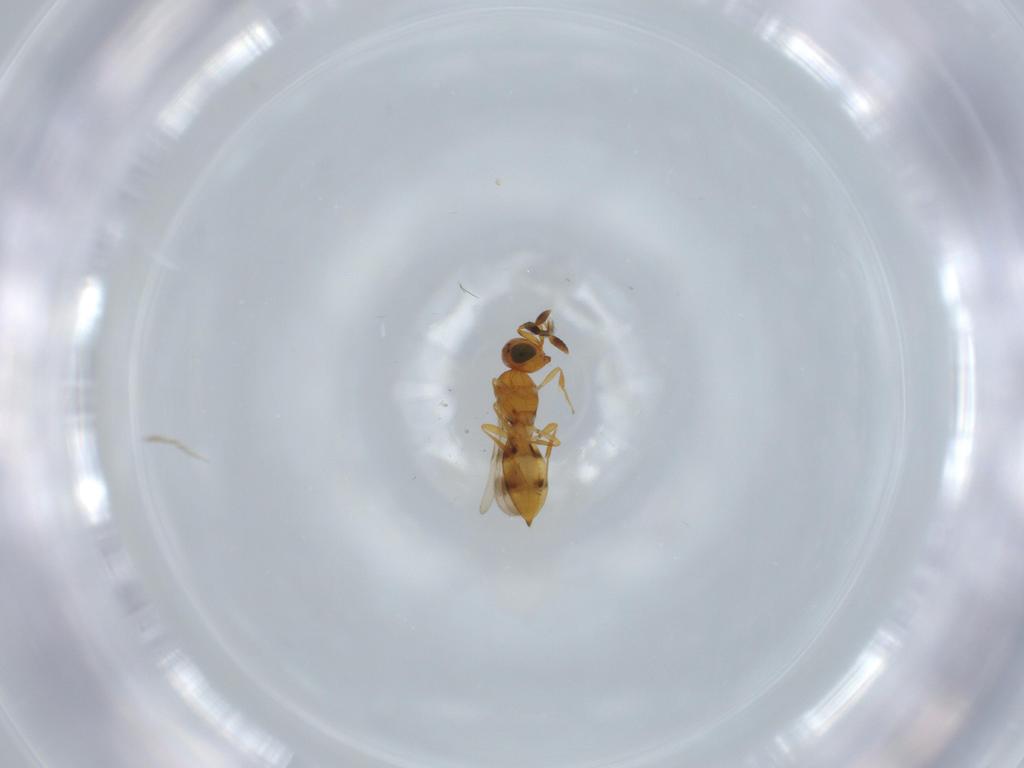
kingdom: Animalia
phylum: Arthropoda
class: Insecta
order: Hymenoptera
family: Scelionidae
